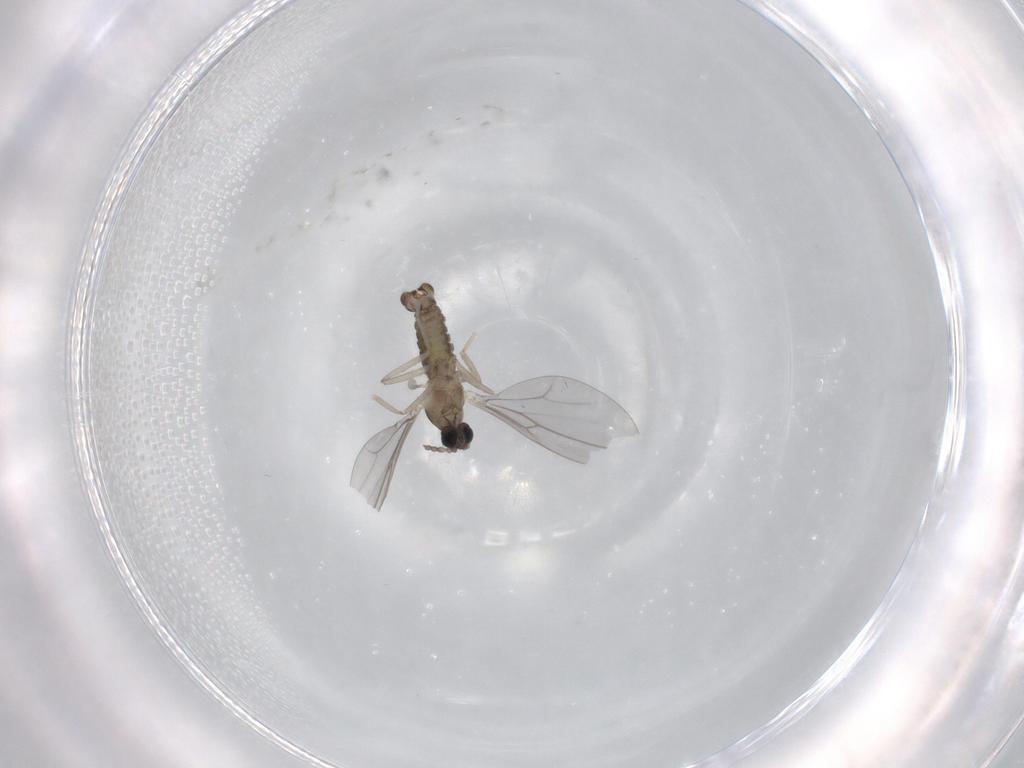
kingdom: Animalia
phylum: Arthropoda
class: Insecta
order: Diptera
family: Cecidomyiidae
